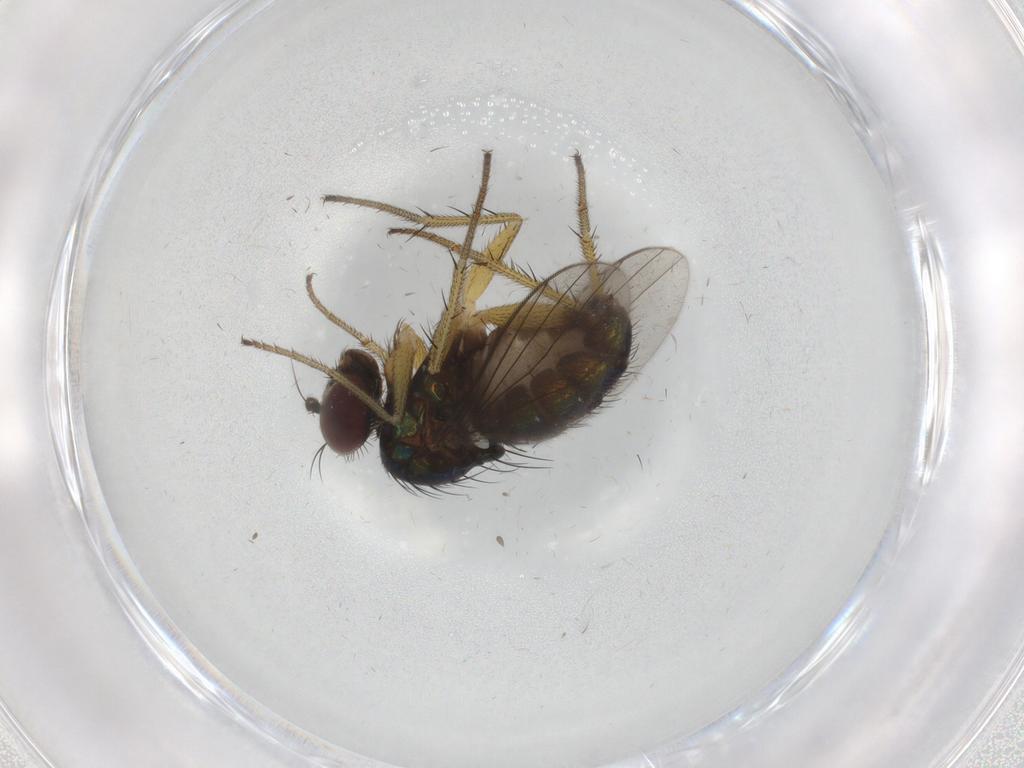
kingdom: Animalia
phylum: Arthropoda
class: Insecta
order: Diptera
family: Dolichopodidae
